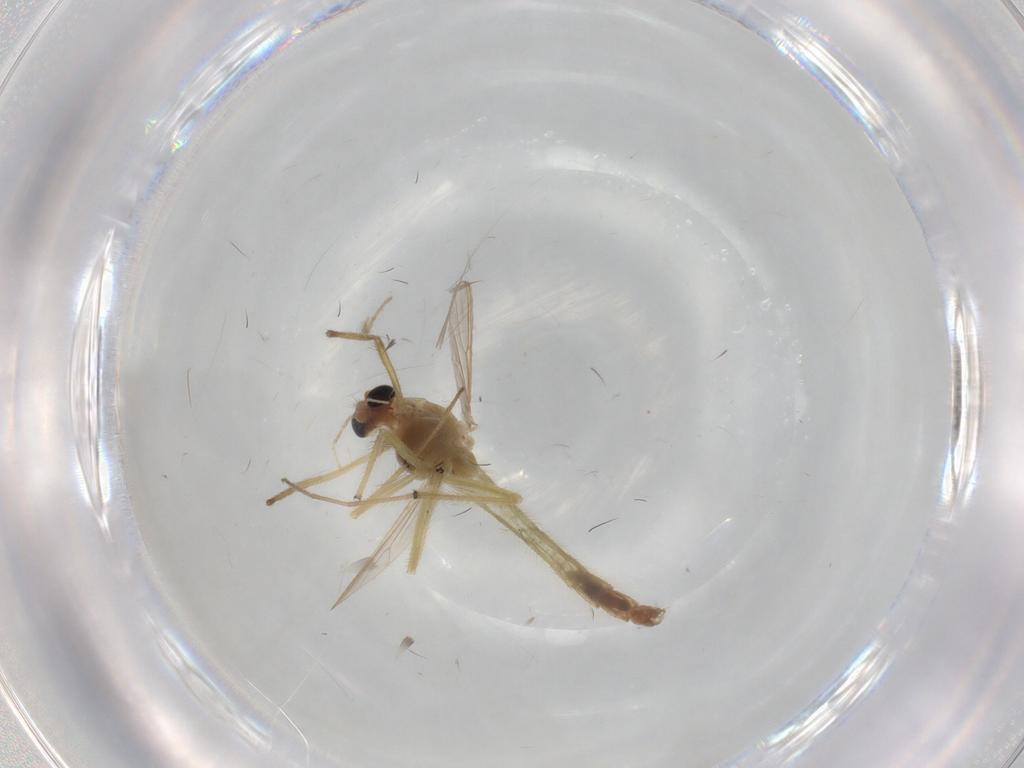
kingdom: Animalia
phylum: Arthropoda
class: Insecta
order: Diptera
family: Chironomidae
